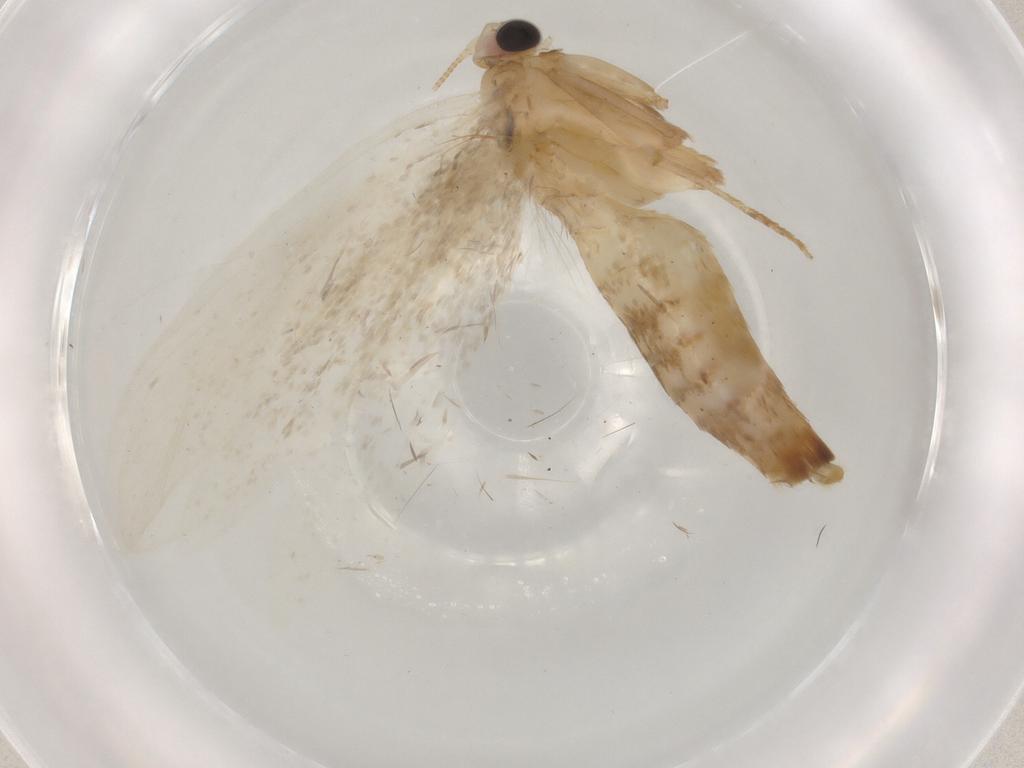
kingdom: Animalia
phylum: Arthropoda
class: Insecta
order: Lepidoptera
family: Tineidae
